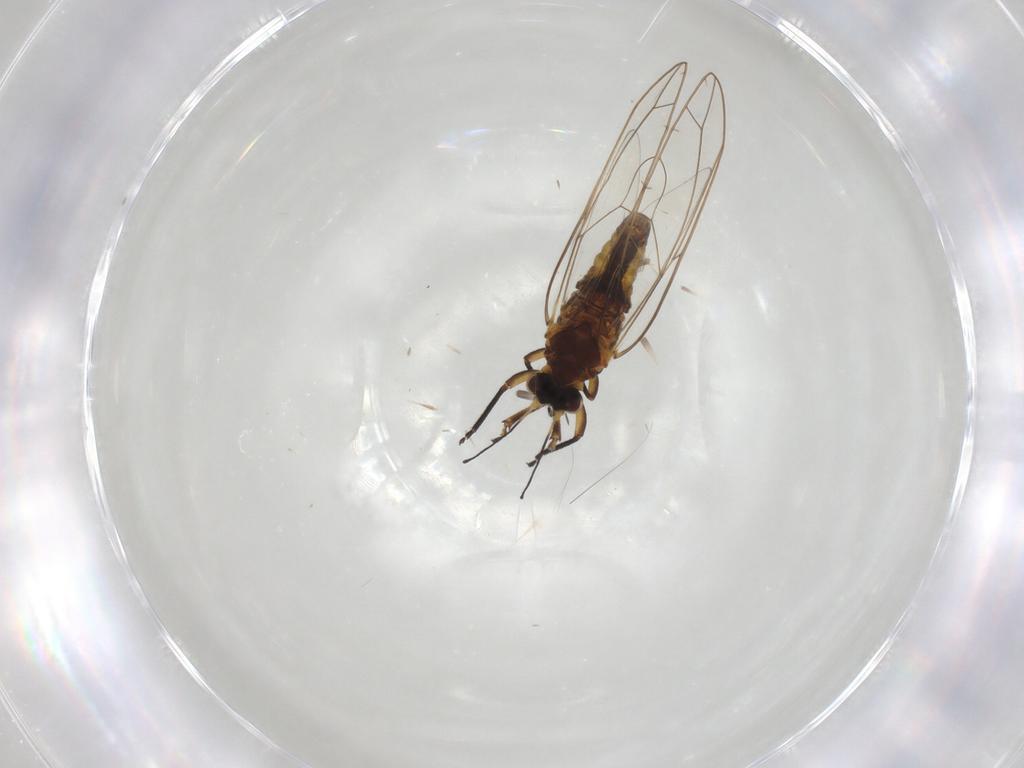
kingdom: Animalia
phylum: Arthropoda
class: Insecta
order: Hemiptera
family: Triozidae
